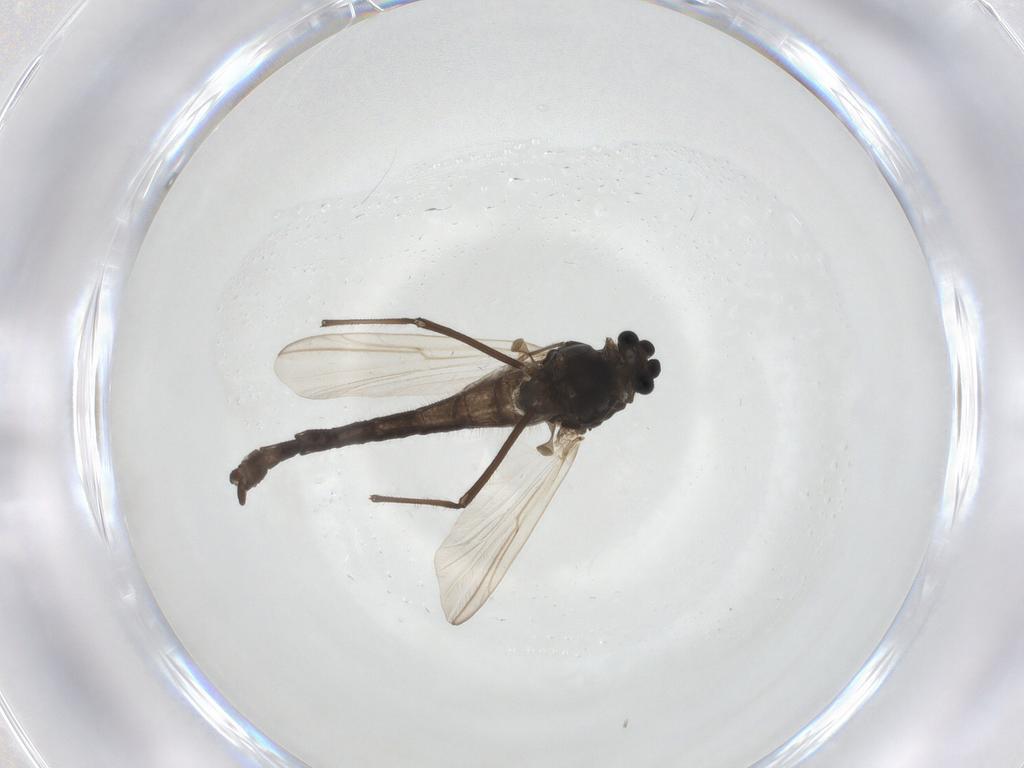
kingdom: Animalia
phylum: Arthropoda
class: Insecta
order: Diptera
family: Chironomidae
